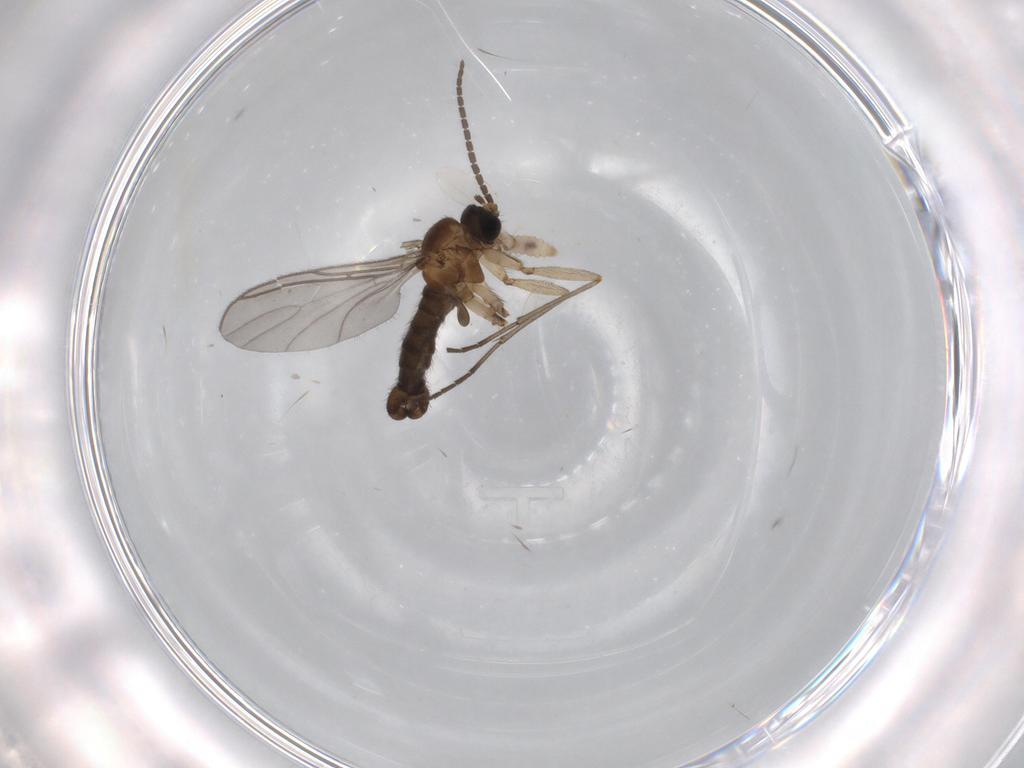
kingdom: Animalia
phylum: Arthropoda
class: Insecta
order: Diptera
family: Sciaridae
